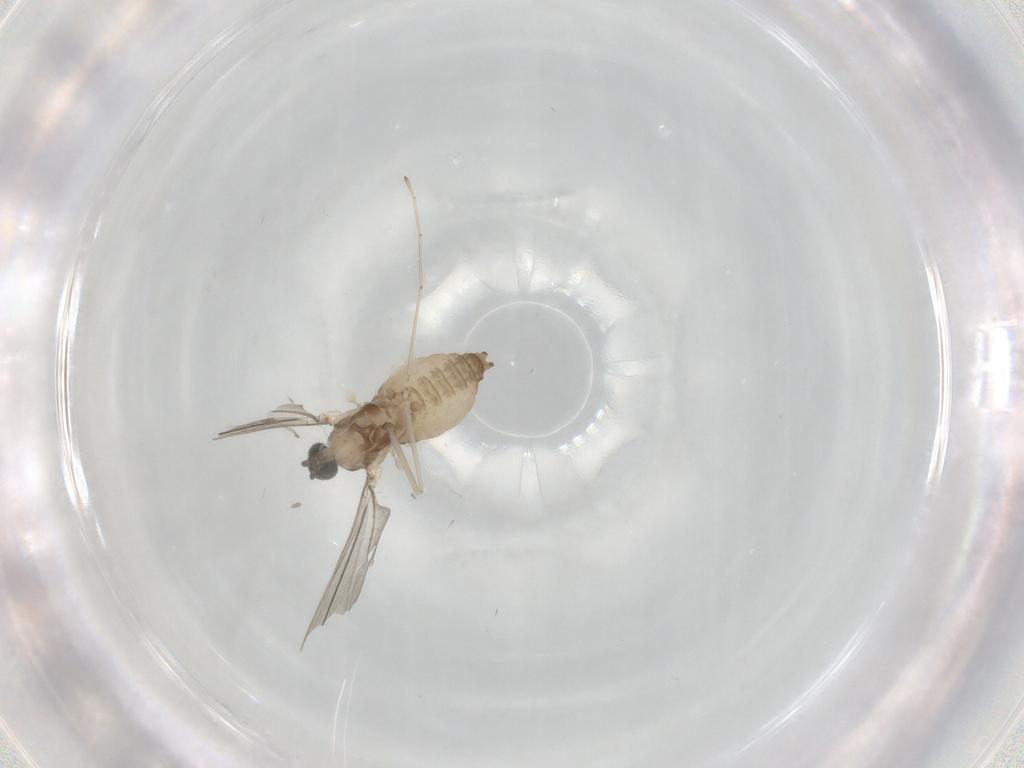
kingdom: Animalia
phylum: Arthropoda
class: Insecta
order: Diptera
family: Cecidomyiidae
